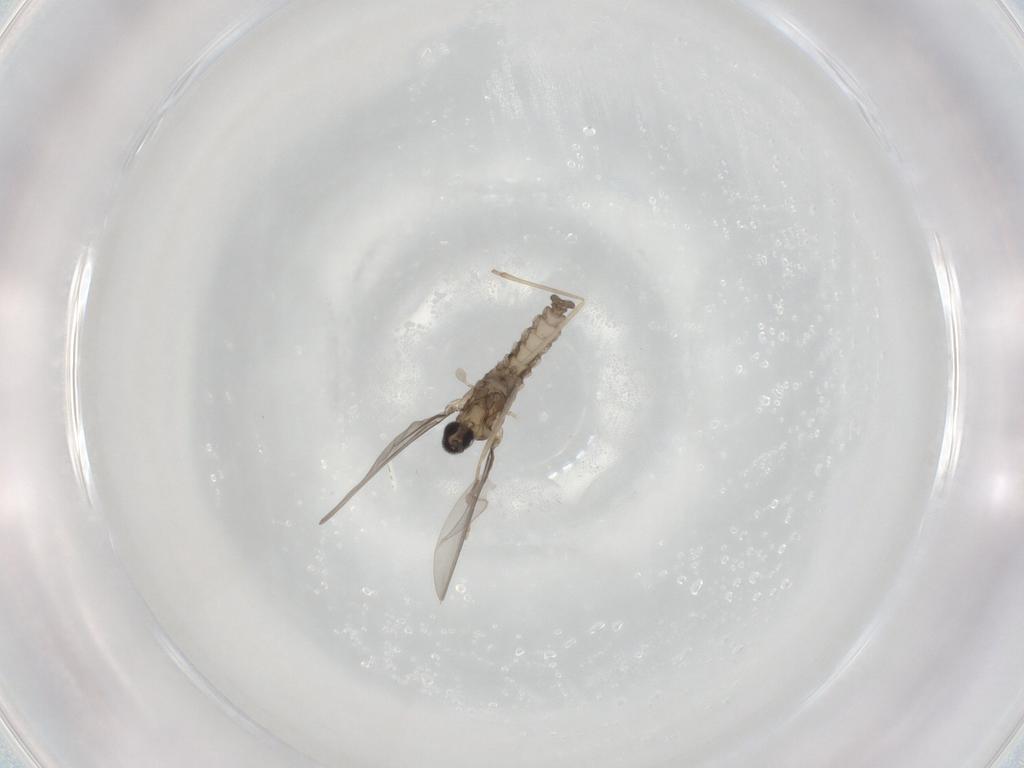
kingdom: Animalia
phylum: Arthropoda
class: Insecta
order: Diptera
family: Cecidomyiidae
